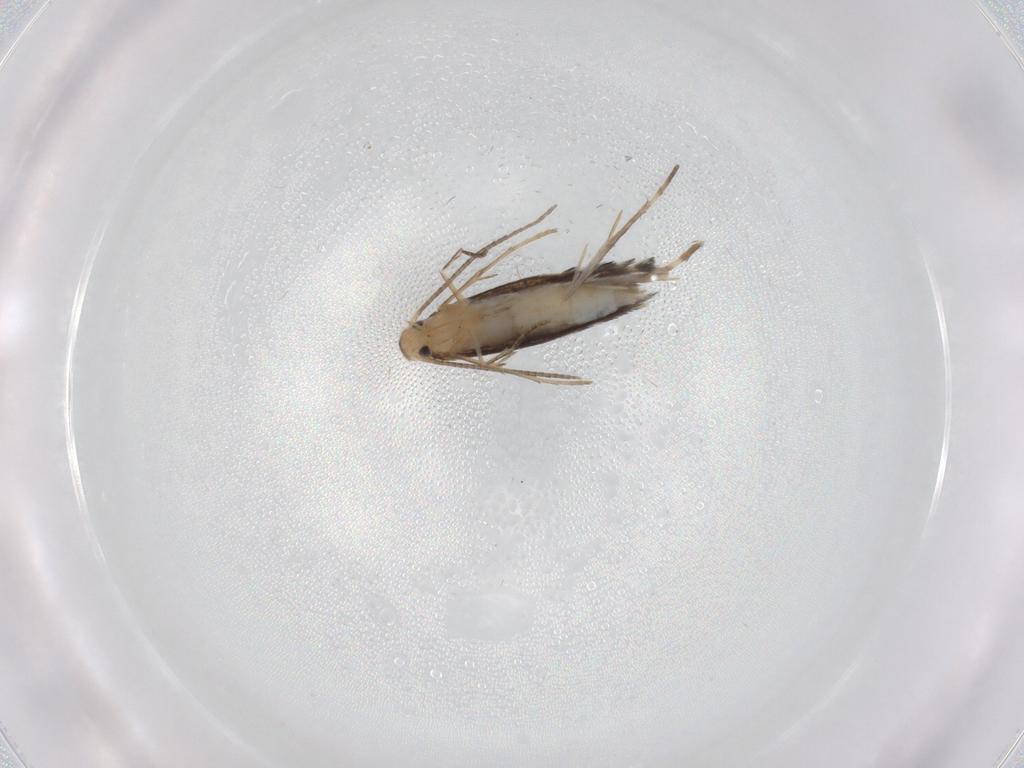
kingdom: Animalia
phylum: Arthropoda
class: Insecta
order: Lepidoptera
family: Gracillariidae
